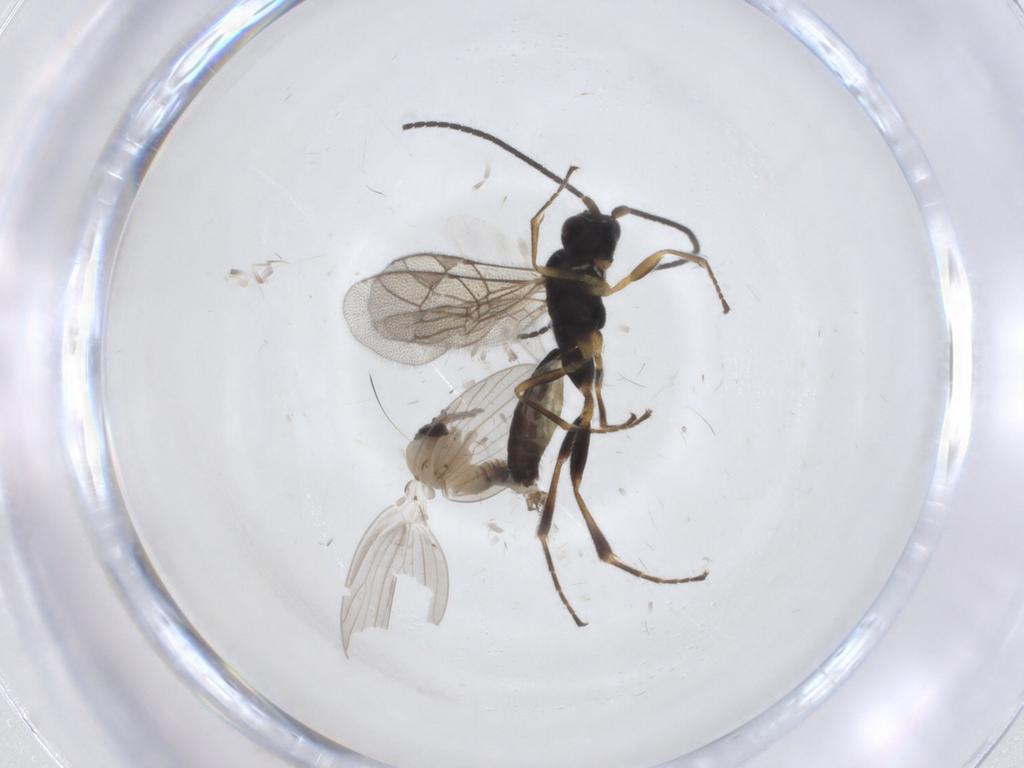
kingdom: Animalia
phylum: Arthropoda
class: Insecta
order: Diptera
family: Psychodidae
